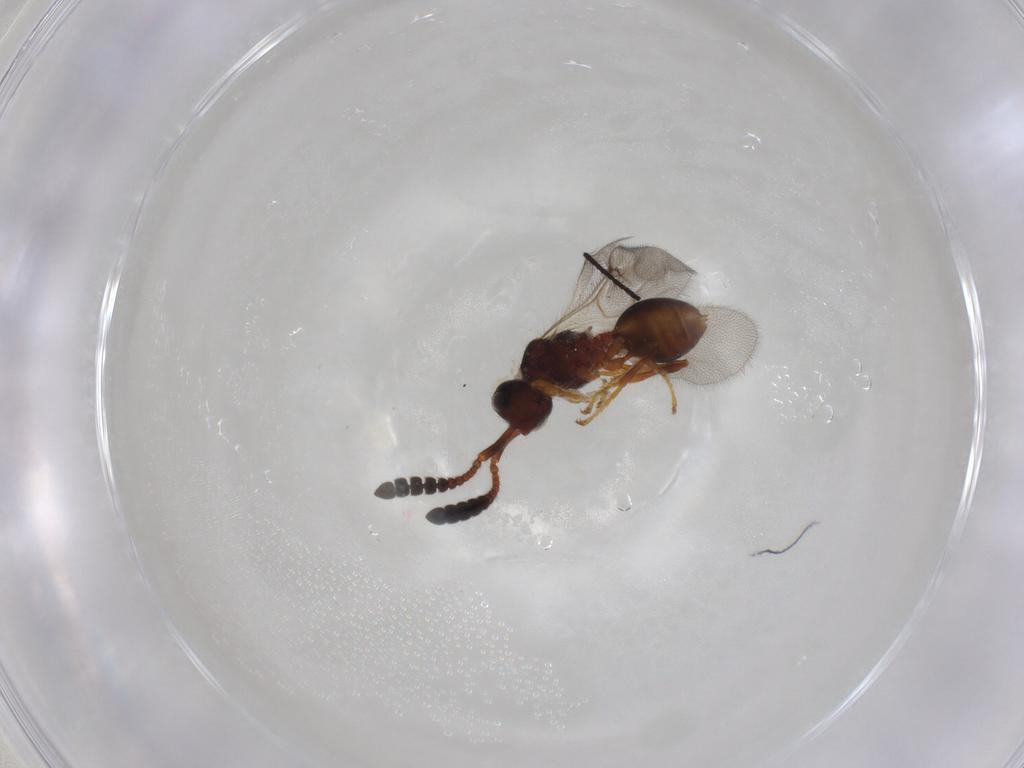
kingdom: Animalia
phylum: Arthropoda
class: Insecta
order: Hymenoptera
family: Diapriidae
